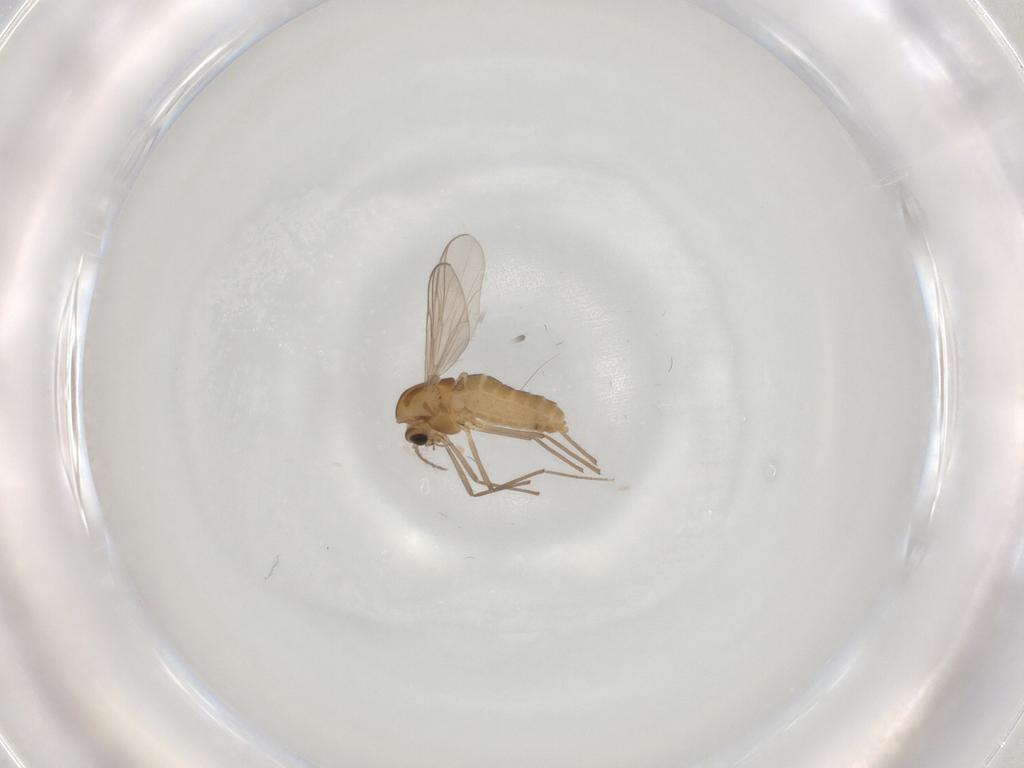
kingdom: Animalia
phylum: Arthropoda
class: Insecta
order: Diptera
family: Chironomidae
